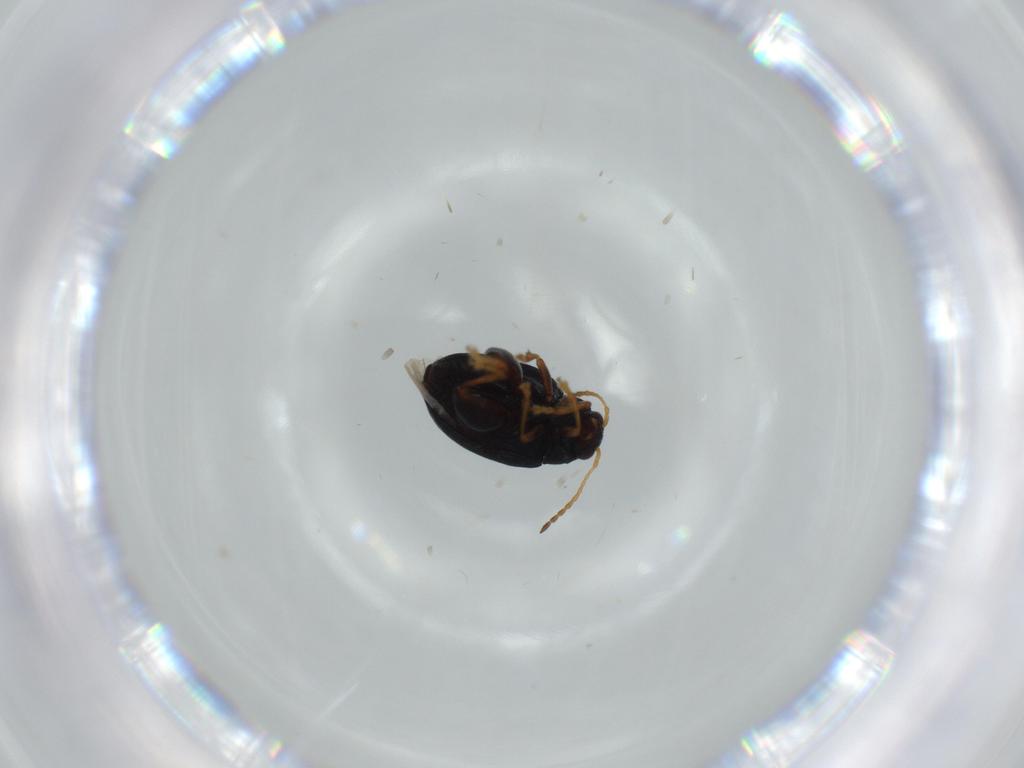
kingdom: Animalia
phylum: Arthropoda
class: Insecta
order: Coleoptera
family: Chrysomelidae
